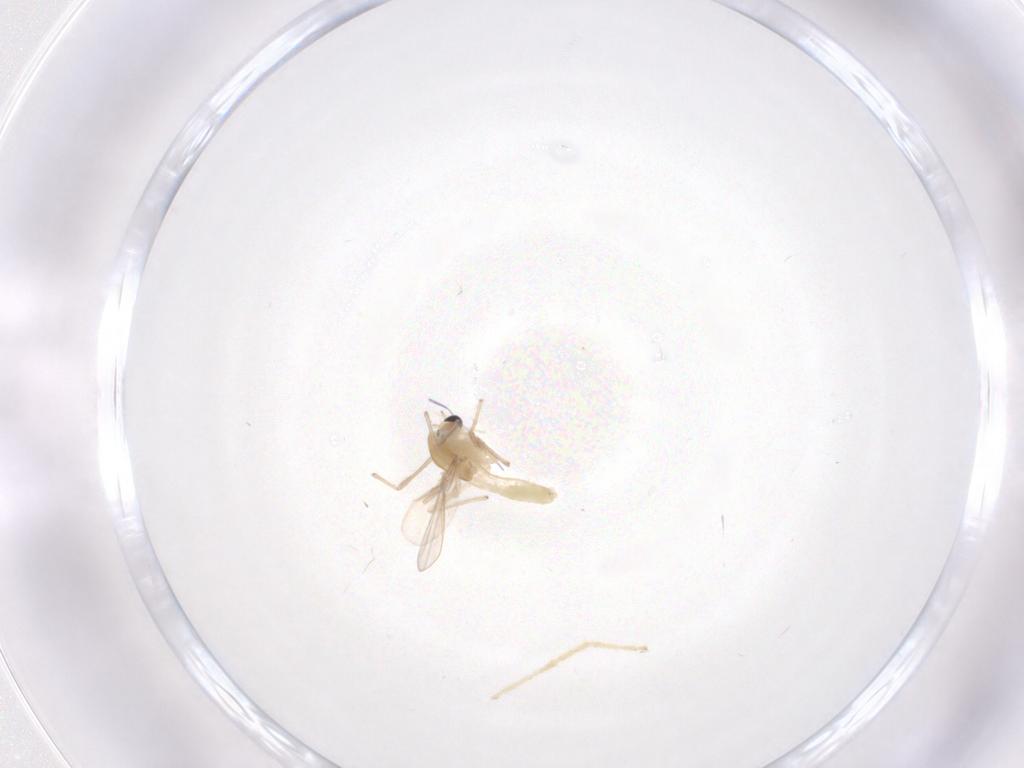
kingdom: Animalia
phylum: Arthropoda
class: Insecta
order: Diptera
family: Chironomidae
